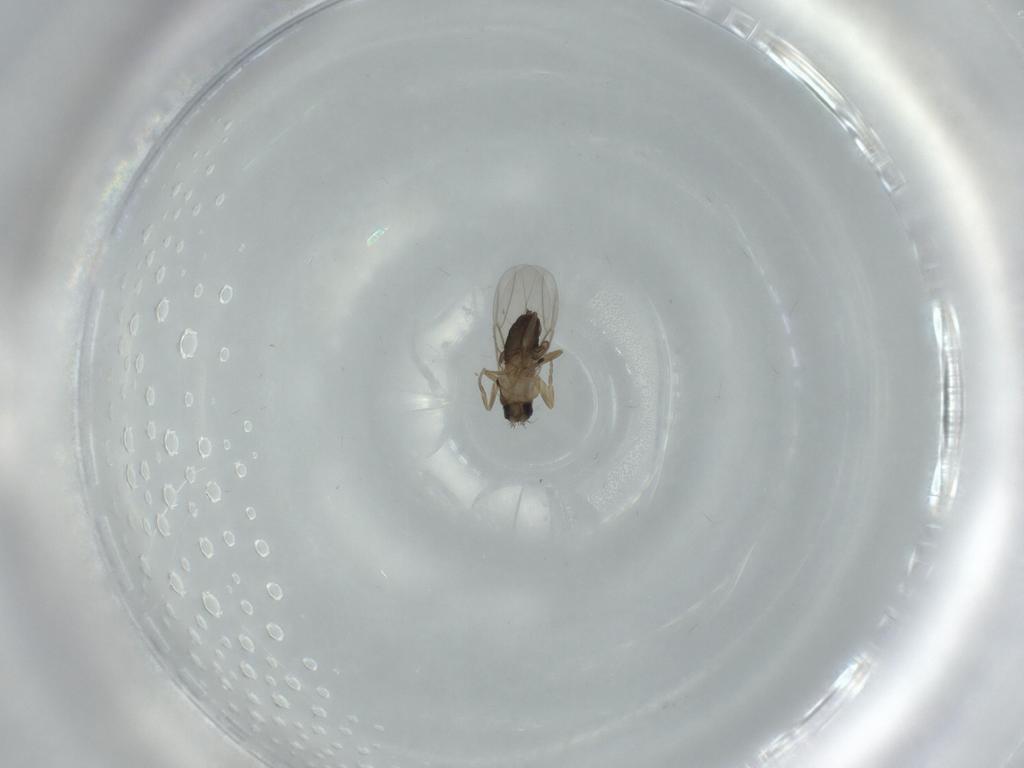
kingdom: Animalia
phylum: Arthropoda
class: Insecta
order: Diptera
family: Phoridae
